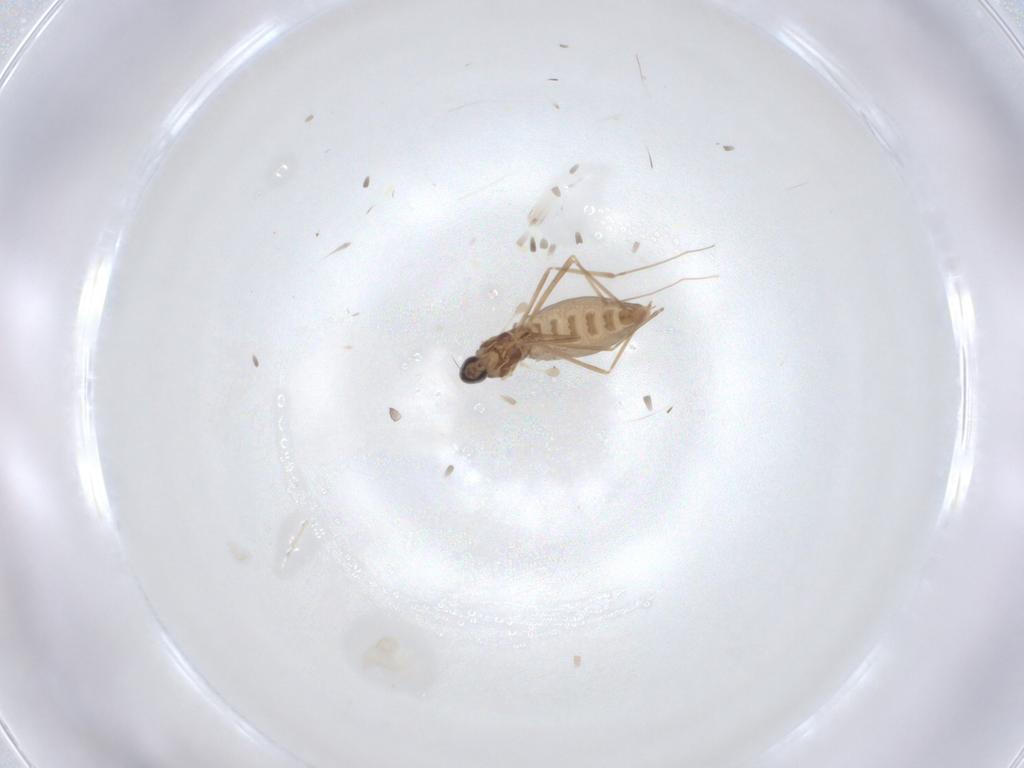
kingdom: Animalia
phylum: Arthropoda
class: Insecta
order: Diptera
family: Cecidomyiidae
